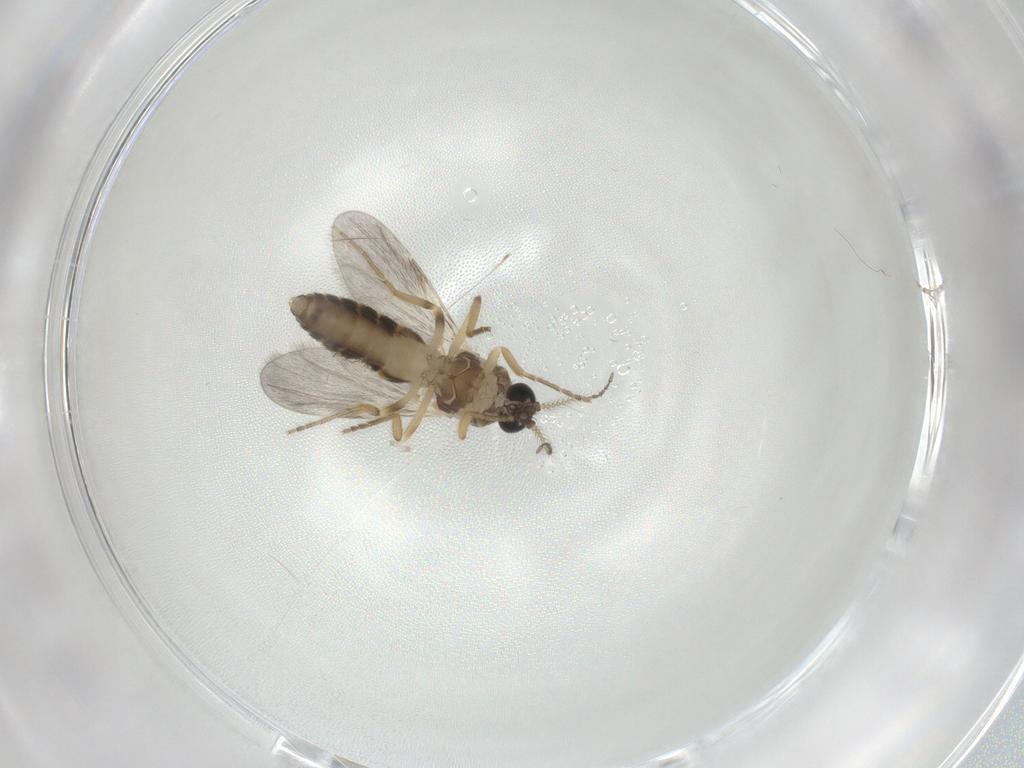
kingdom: Animalia
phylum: Arthropoda
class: Insecta
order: Diptera
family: Ceratopogonidae
